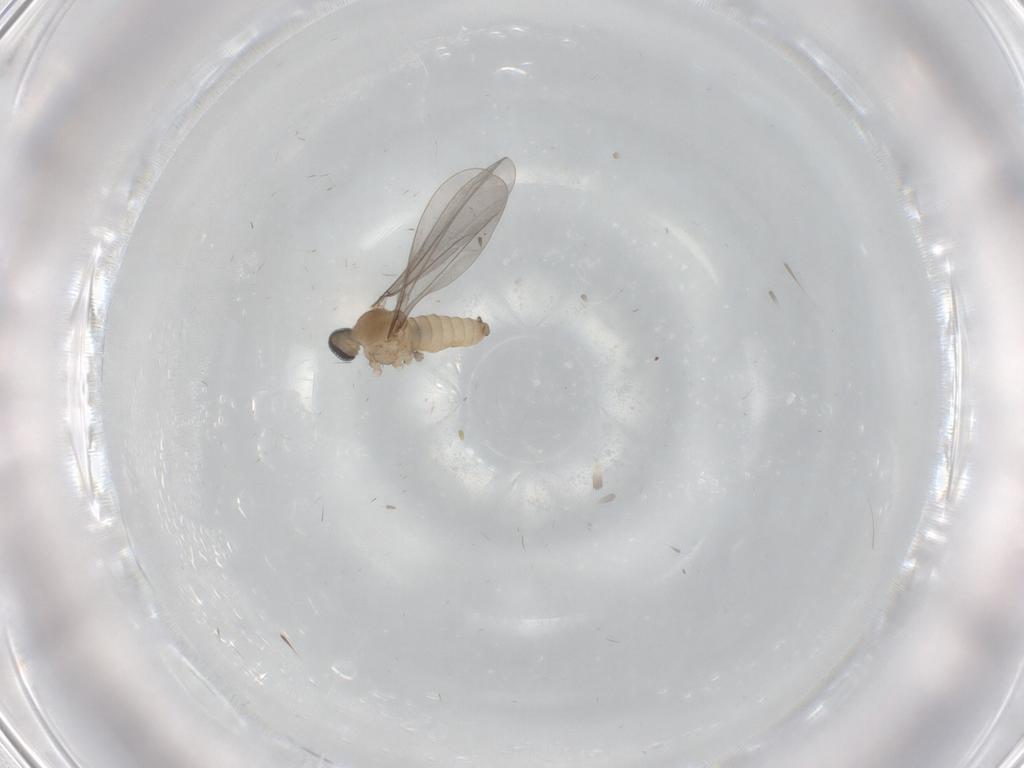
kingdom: Animalia
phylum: Arthropoda
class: Insecta
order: Diptera
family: Cecidomyiidae
